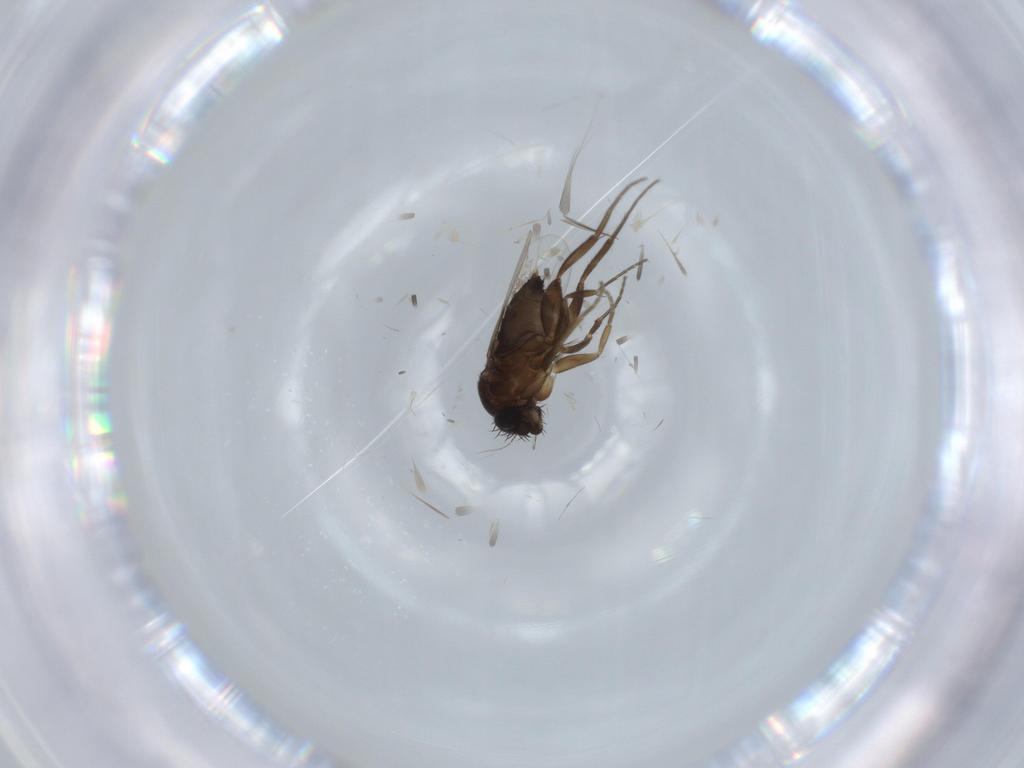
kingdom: Animalia
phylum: Arthropoda
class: Insecta
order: Diptera
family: Phoridae
